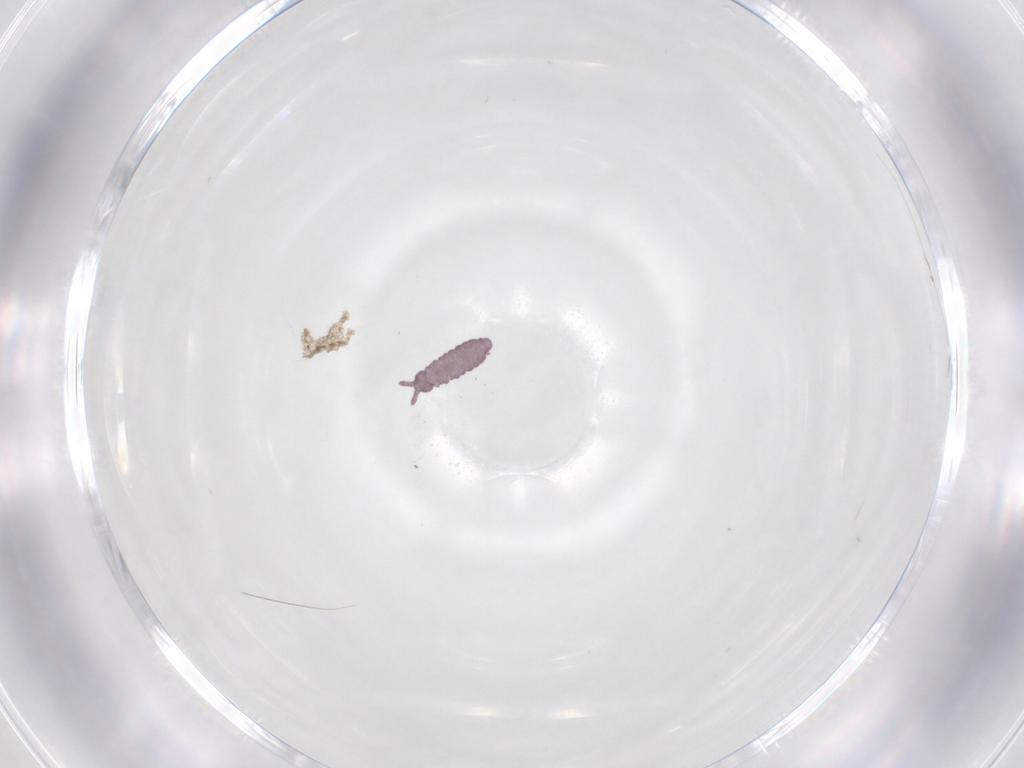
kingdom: Animalia
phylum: Arthropoda
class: Collembola
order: Poduromorpha
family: Hypogastruridae
